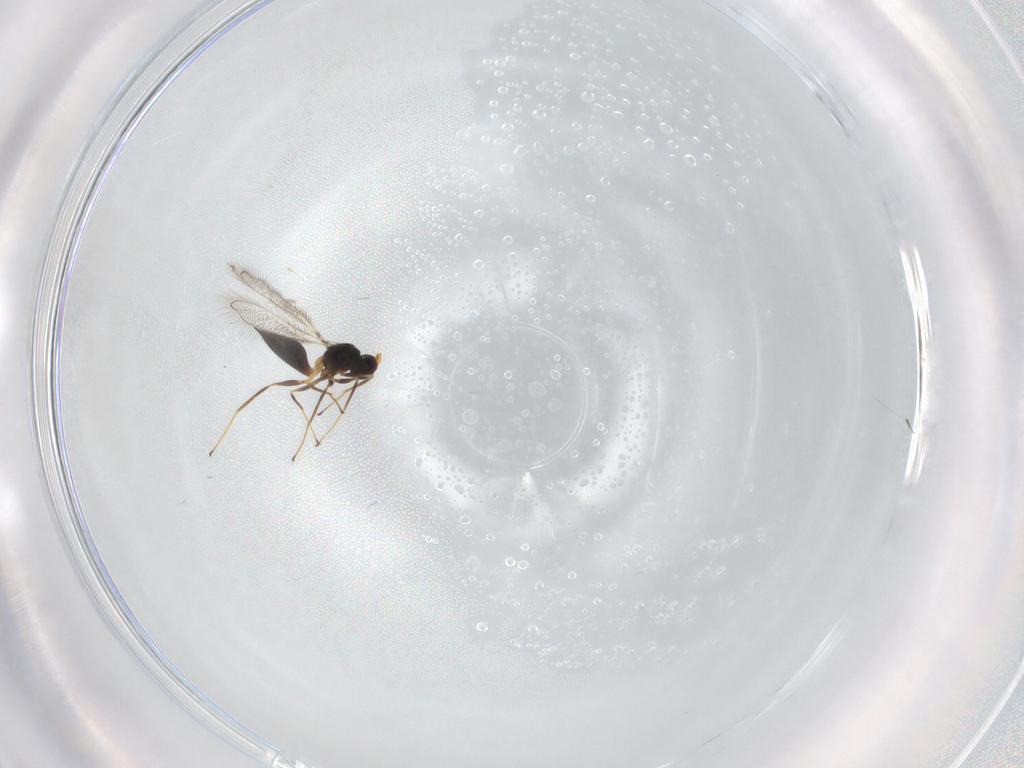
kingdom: Animalia
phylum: Arthropoda
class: Insecta
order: Hymenoptera
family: Mymaridae
